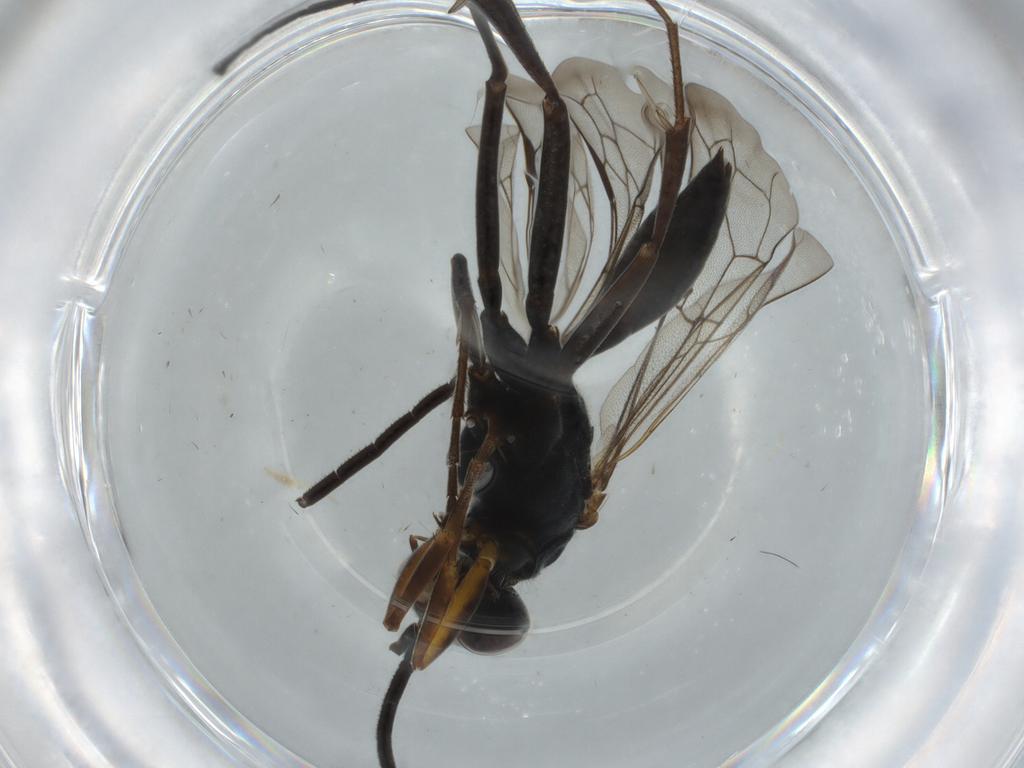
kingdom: Animalia
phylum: Arthropoda
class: Insecta
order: Hymenoptera
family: Pompilidae
